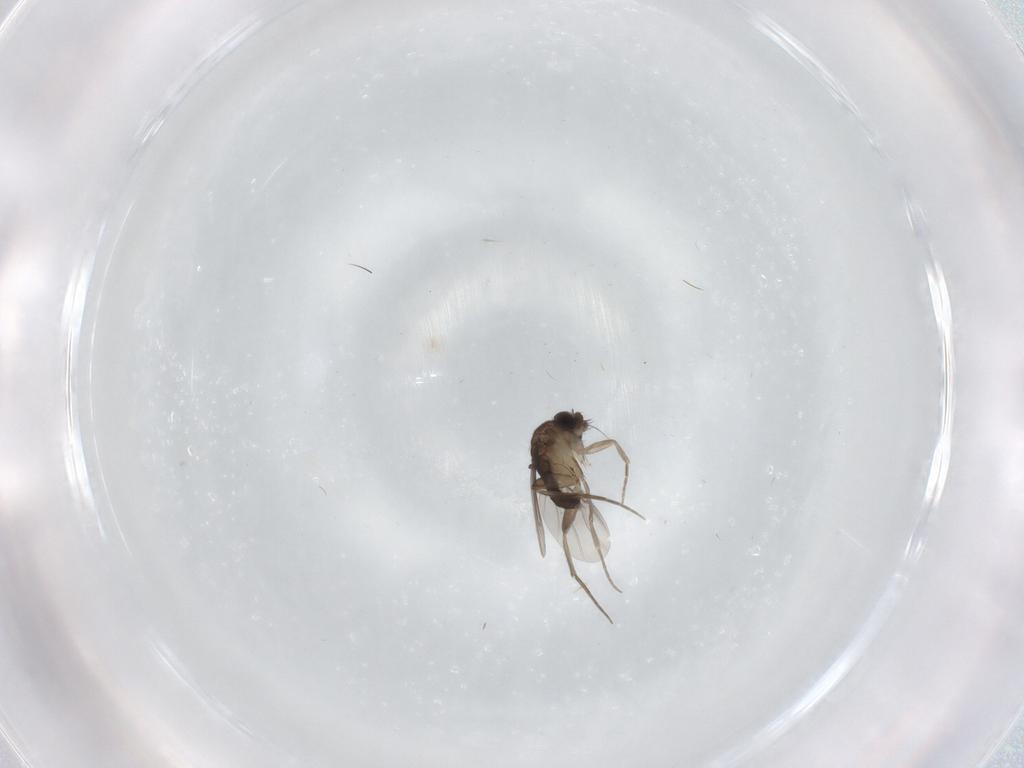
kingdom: Animalia
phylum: Arthropoda
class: Insecta
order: Diptera
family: Phoridae
